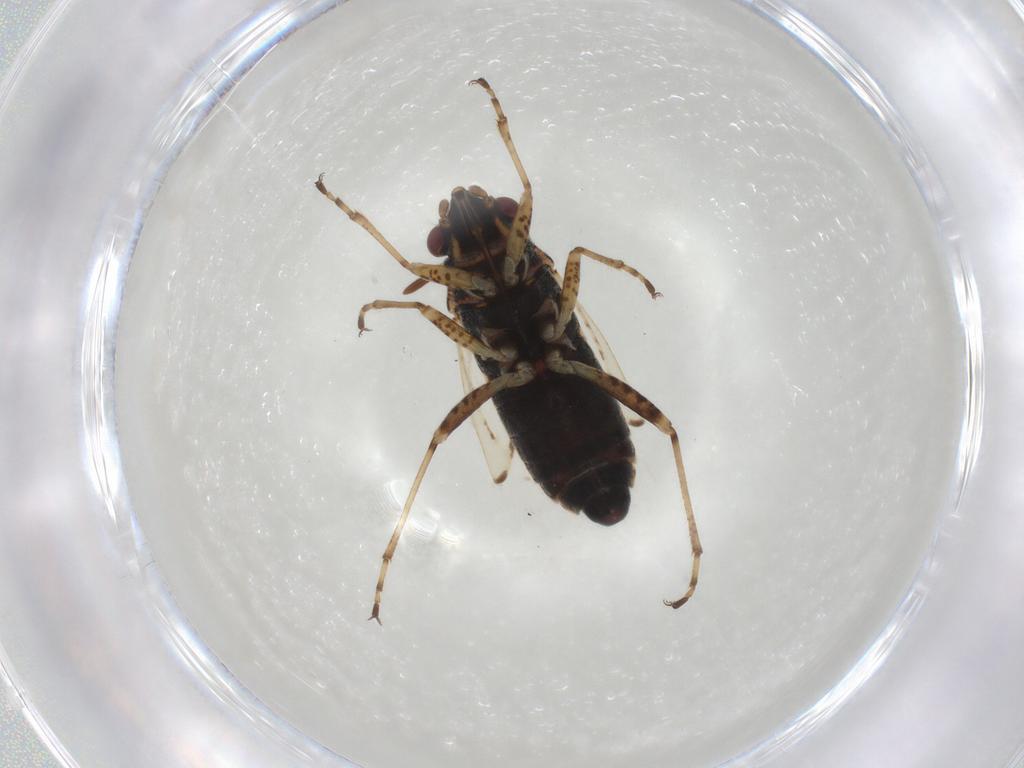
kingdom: Animalia
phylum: Arthropoda
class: Insecta
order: Hemiptera
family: Lygaeidae
